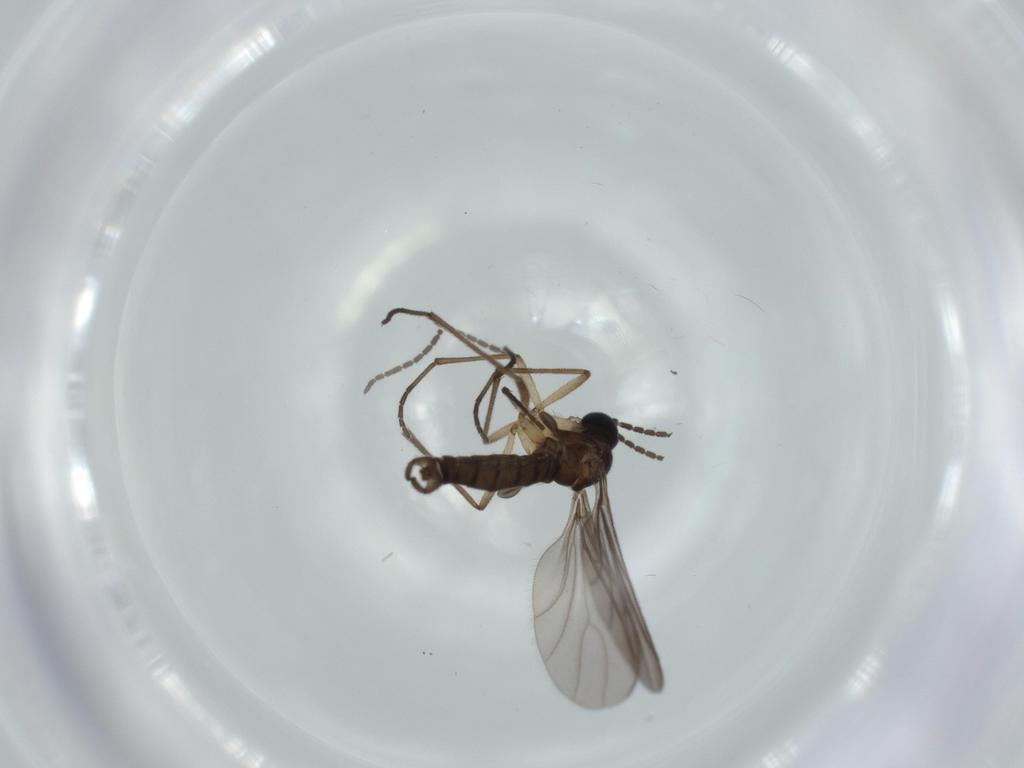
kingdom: Animalia
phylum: Arthropoda
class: Insecta
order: Diptera
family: Sciaridae
